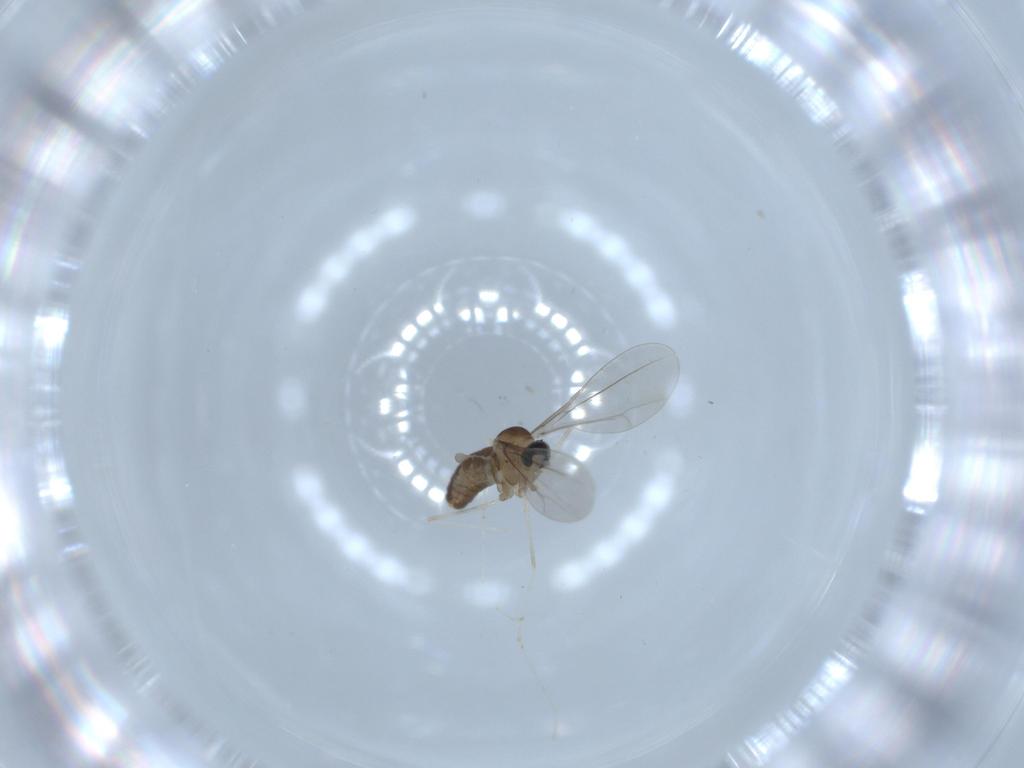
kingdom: Animalia
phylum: Arthropoda
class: Insecta
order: Diptera
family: Cecidomyiidae
